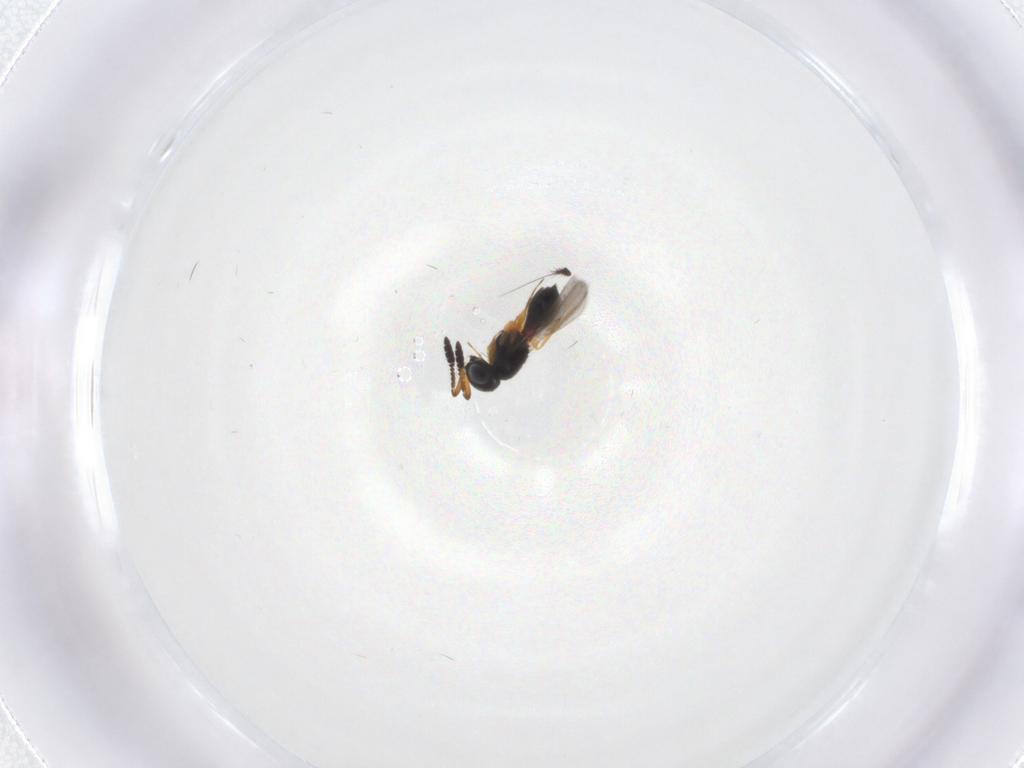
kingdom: Animalia
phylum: Arthropoda
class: Insecta
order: Hymenoptera
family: Scelionidae
